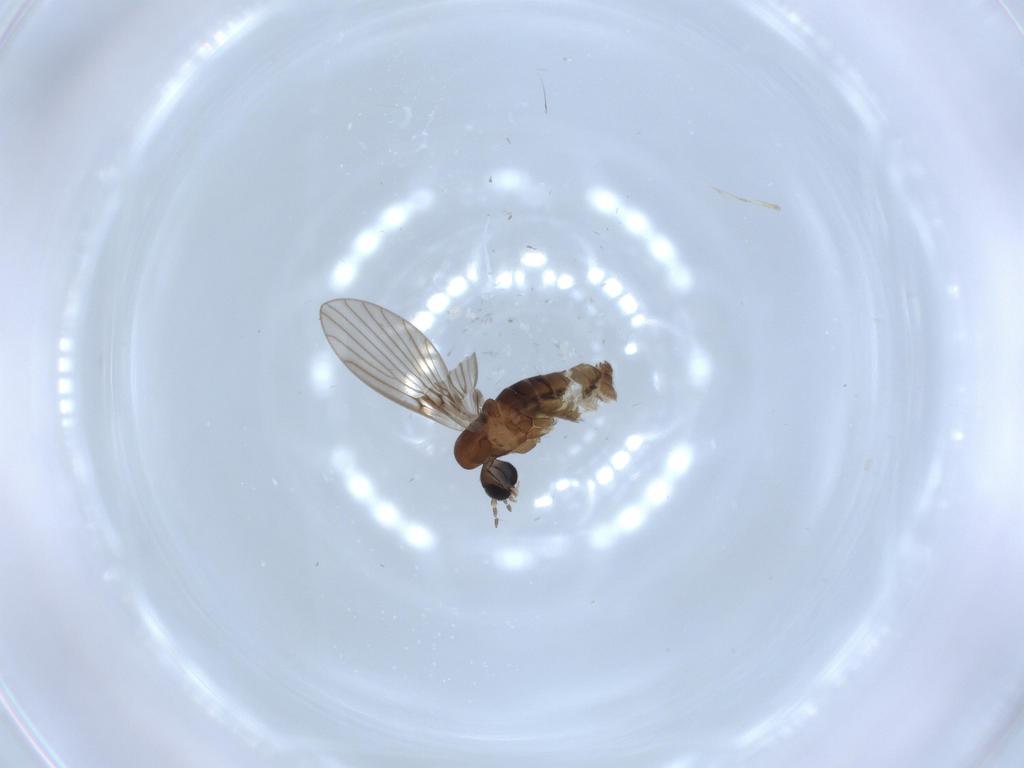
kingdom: Animalia
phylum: Arthropoda
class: Insecta
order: Diptera
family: Psychodidae
